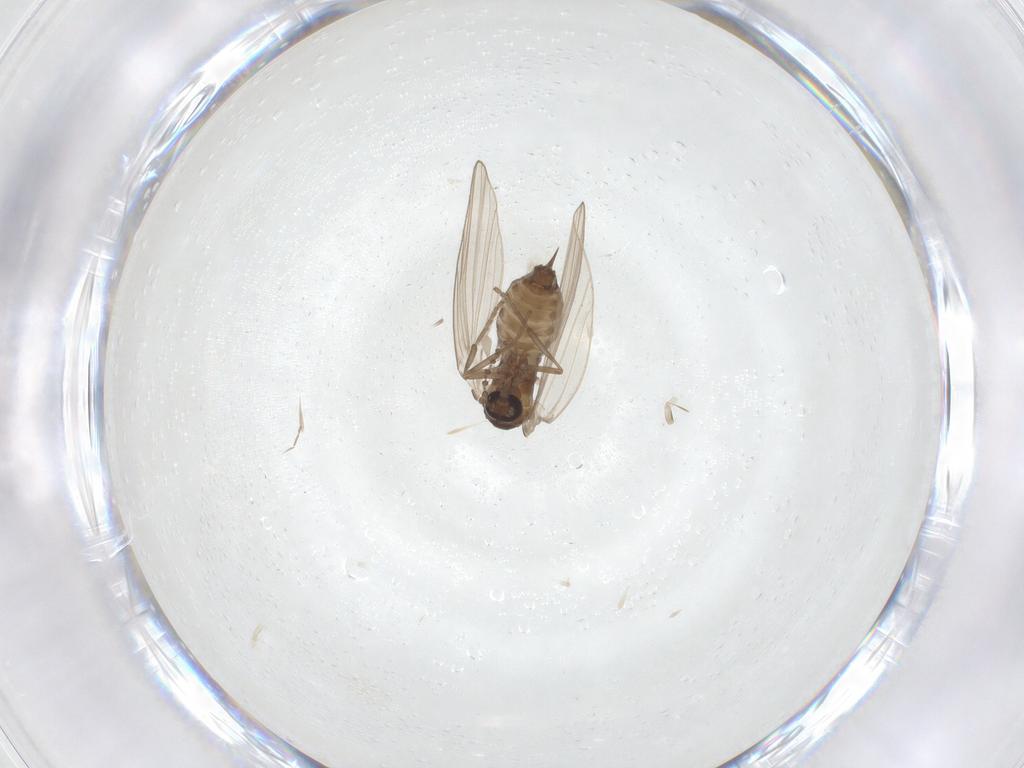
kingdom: Animalia
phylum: Arthropoda
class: Insecta
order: Diptera
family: Psychodidae
